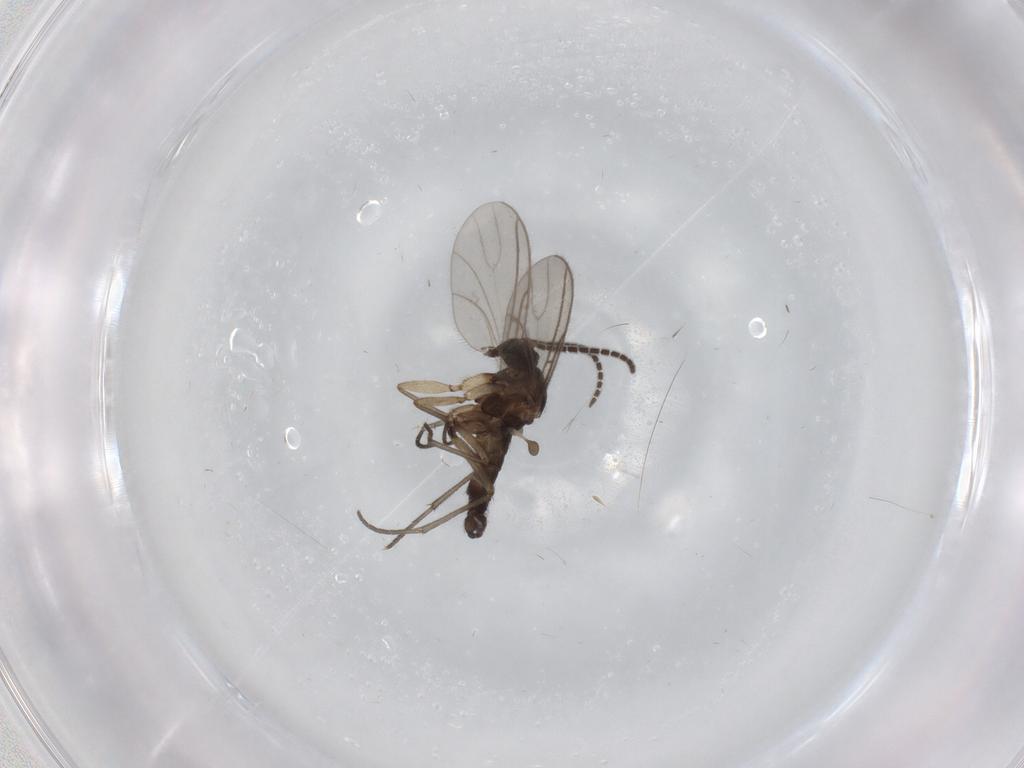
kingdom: Animalia
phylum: Arthropoda
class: Insecta
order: Diptera
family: Sciaridae
